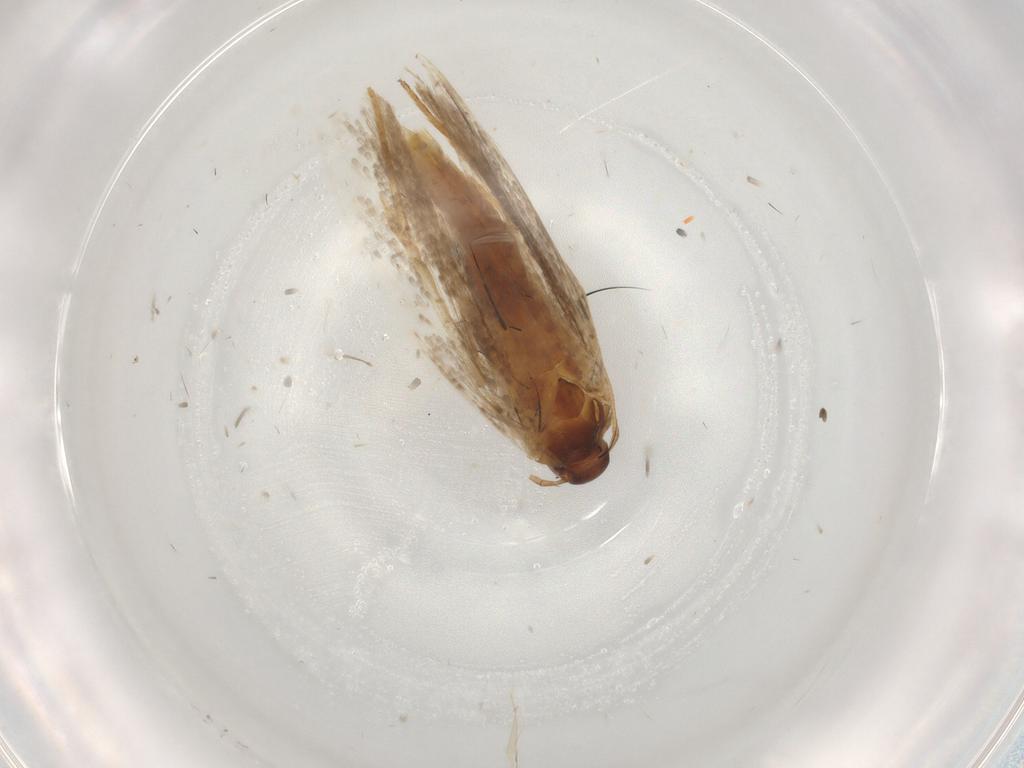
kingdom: Animalia
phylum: Arthropoda
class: Insecta
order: Lepidoptera
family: Gelechiidae
